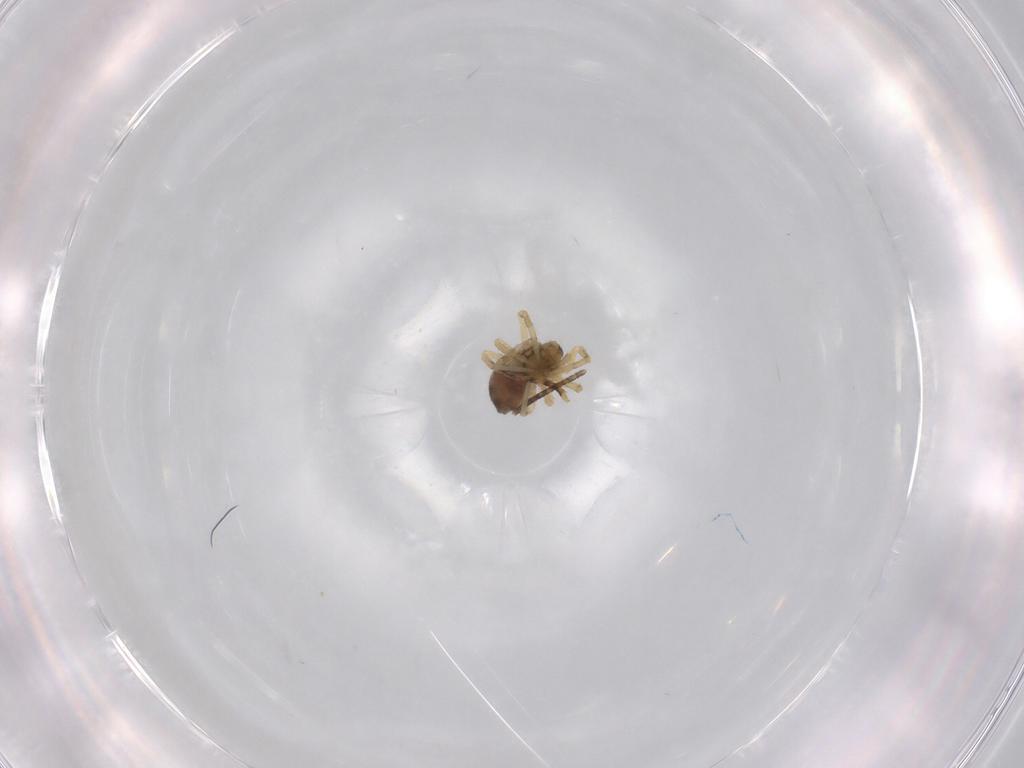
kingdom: Animalia
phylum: Arthropoda
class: Arachnida
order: Araneae
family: Theridiidae
